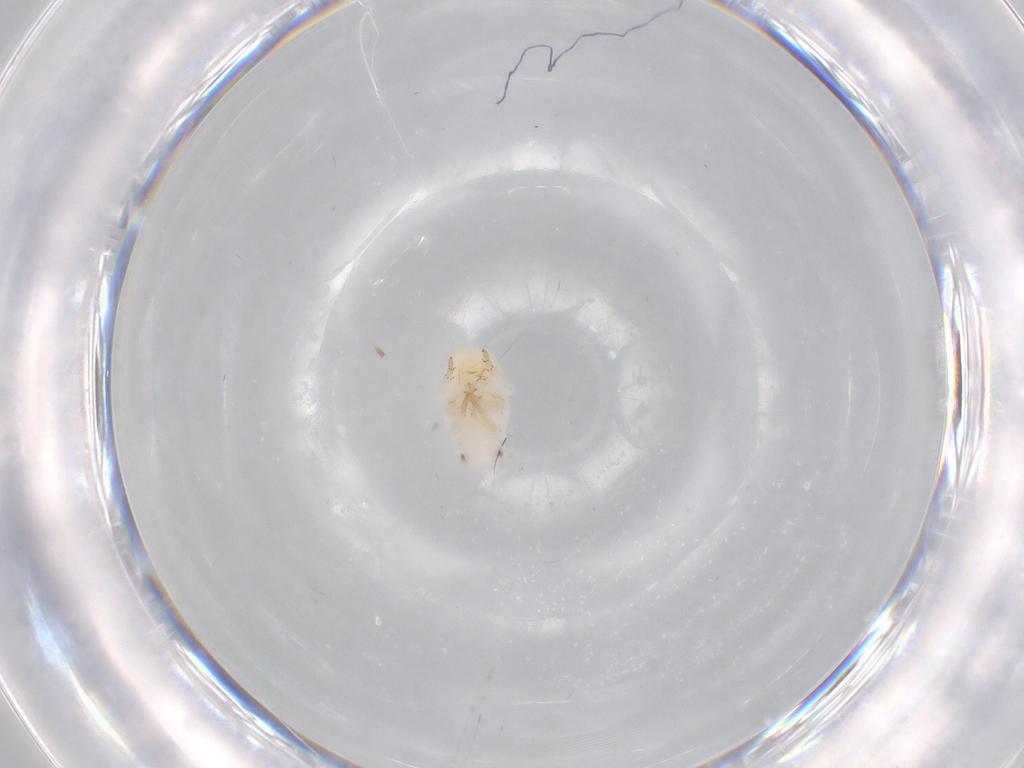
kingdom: Animalia
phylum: Arthropoda
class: Insecta
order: Hemiptera
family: Flatidae
